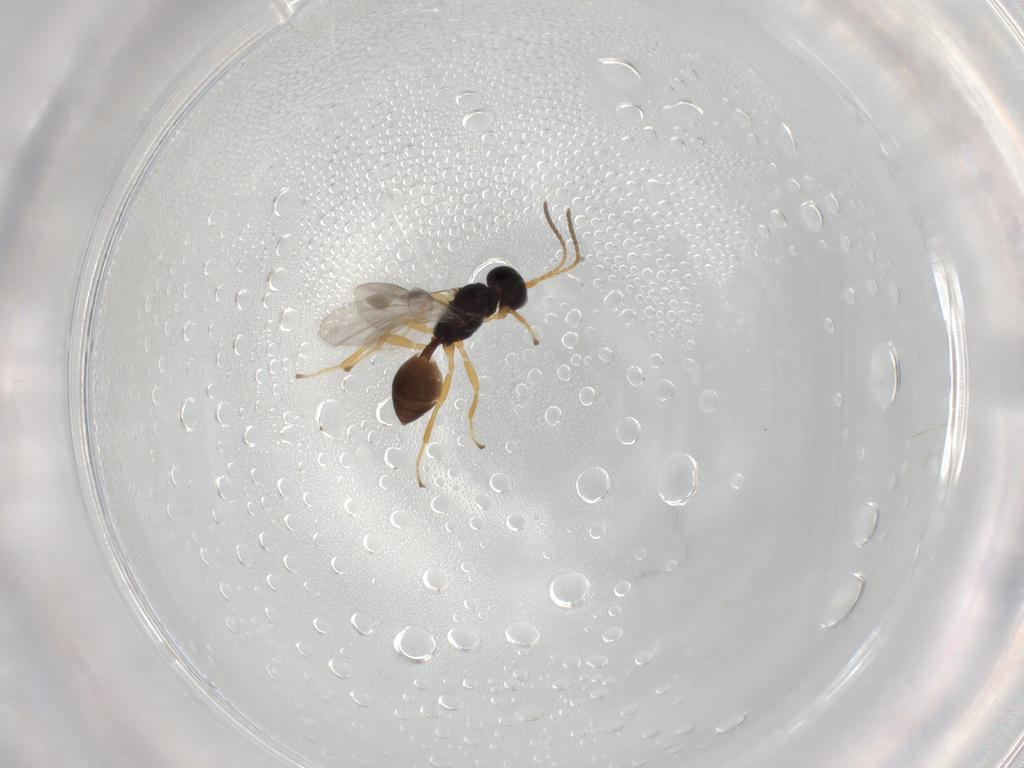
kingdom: Animalia
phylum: Arthropoda
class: Insecta
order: Hymenoptera
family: Braconidae
